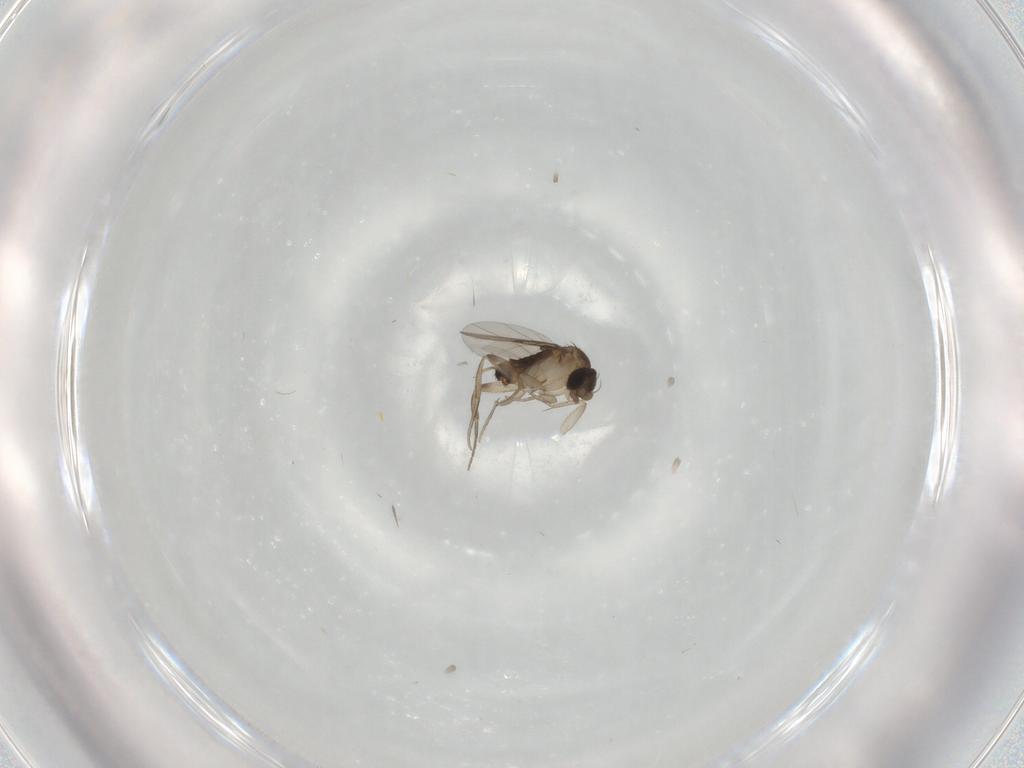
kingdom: Animalia
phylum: Arthropoda
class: Insecta
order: Diptera
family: Phoridae
